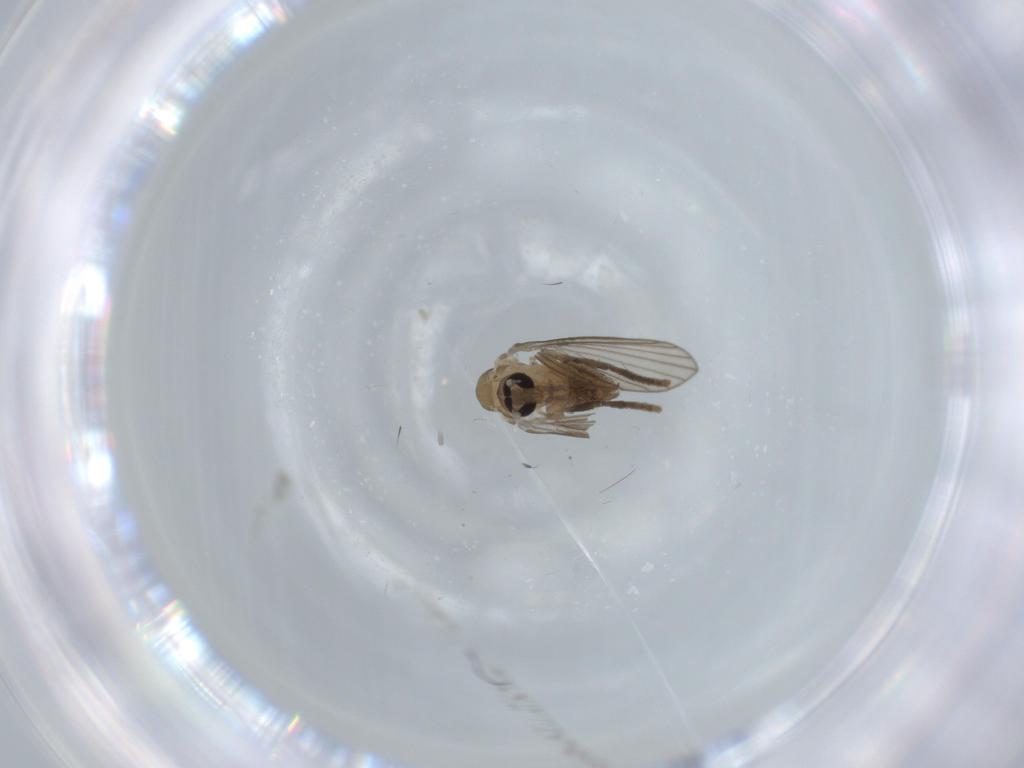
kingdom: Animalia
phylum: Arthropoda
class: Insecta
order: Diptera
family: Psychodidae
